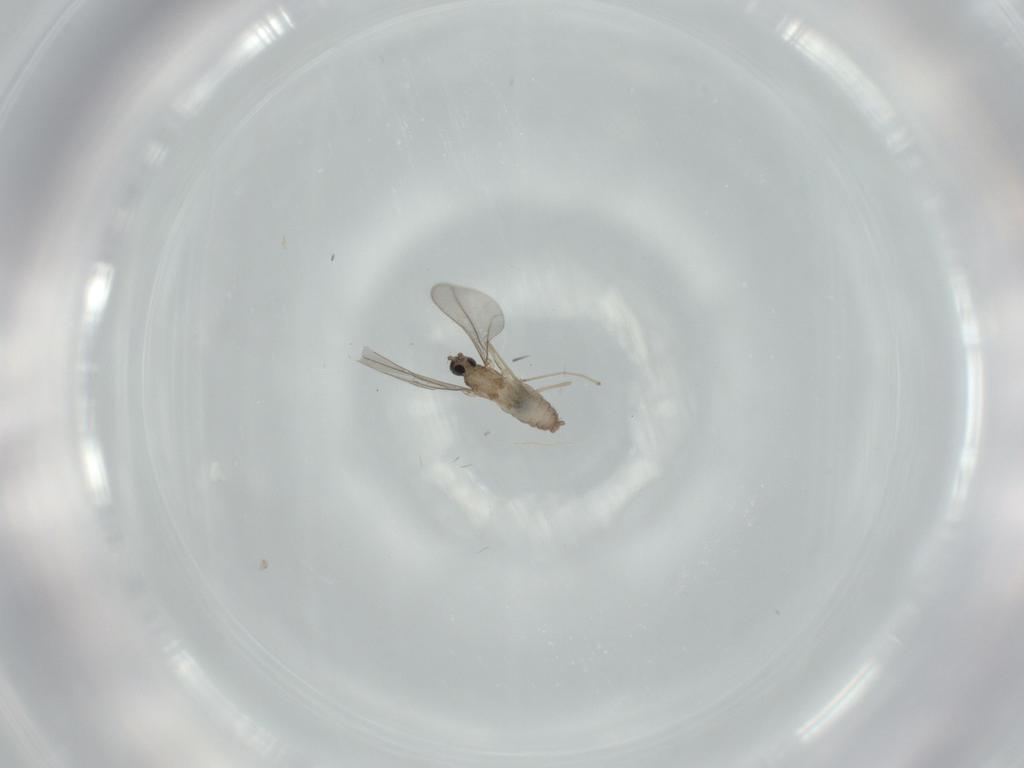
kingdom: Animalia
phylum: Arthropoda
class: Insecta
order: Diptera
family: Cecidomyiidae
